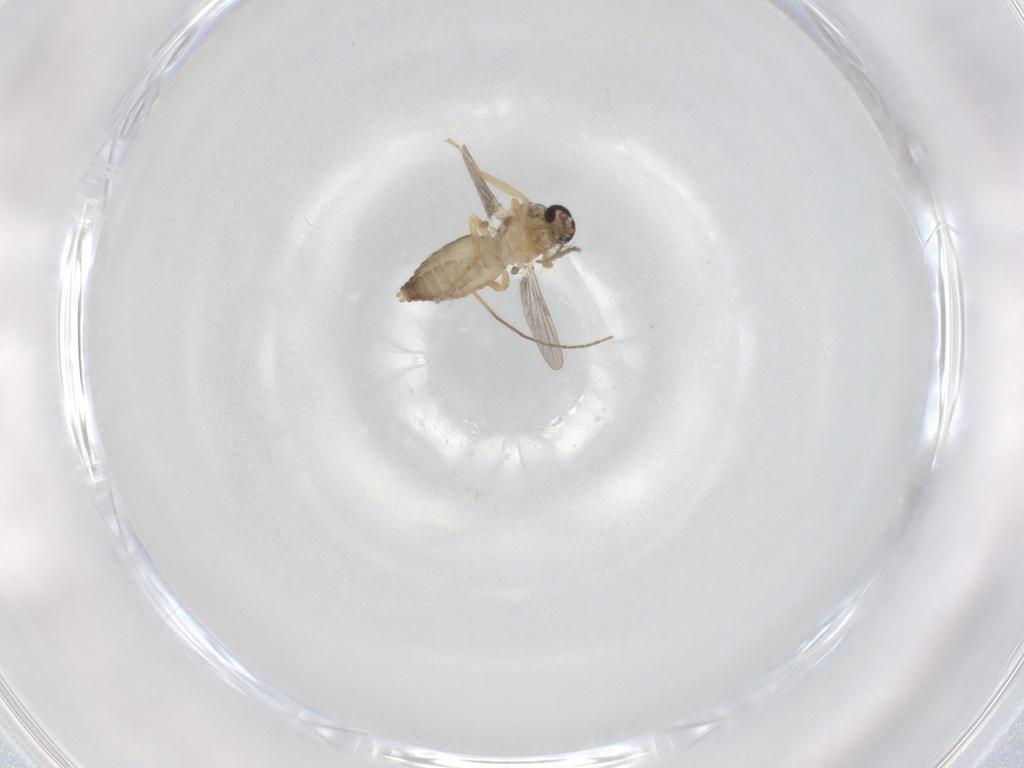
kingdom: Animalia
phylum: Arthropoda
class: Insecta
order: Diptera
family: Ceratopogonidae
